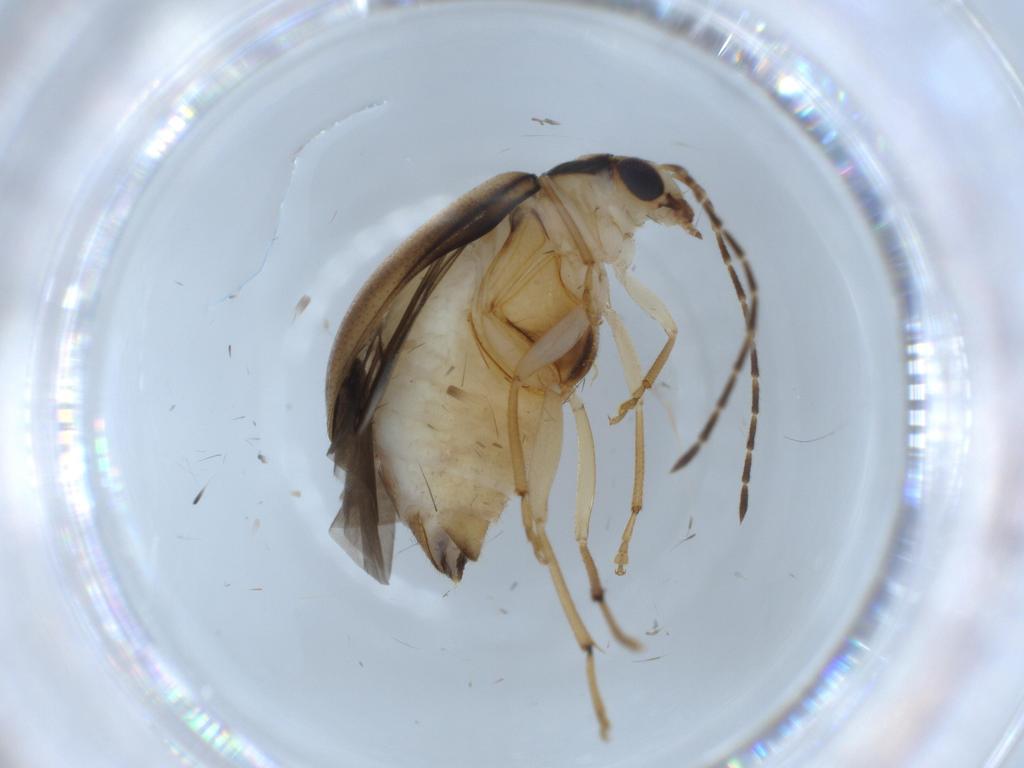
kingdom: Animalia
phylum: Arthropoda
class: Insecta
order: Coleoptera
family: Chrysomelidae
